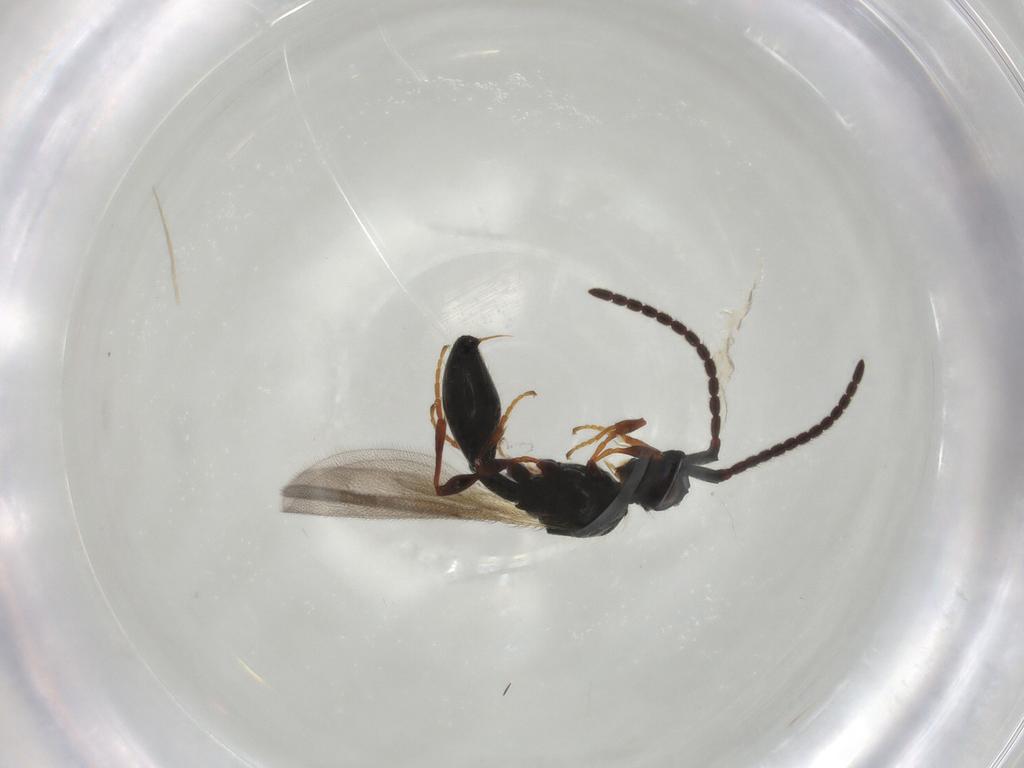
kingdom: Animalia
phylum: Arthropoda
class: Insecta
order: Hymenoptera
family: Diapriidae
